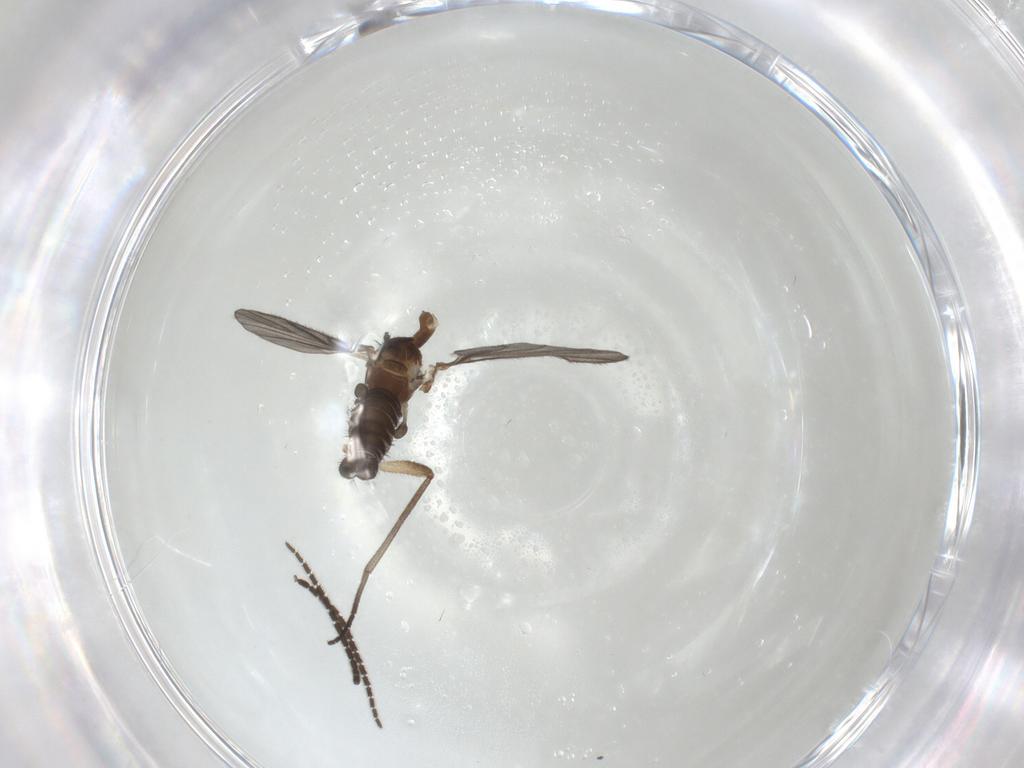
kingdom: Animalia
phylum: Arthropoda
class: Insecta
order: Diptera
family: Sciaridae
